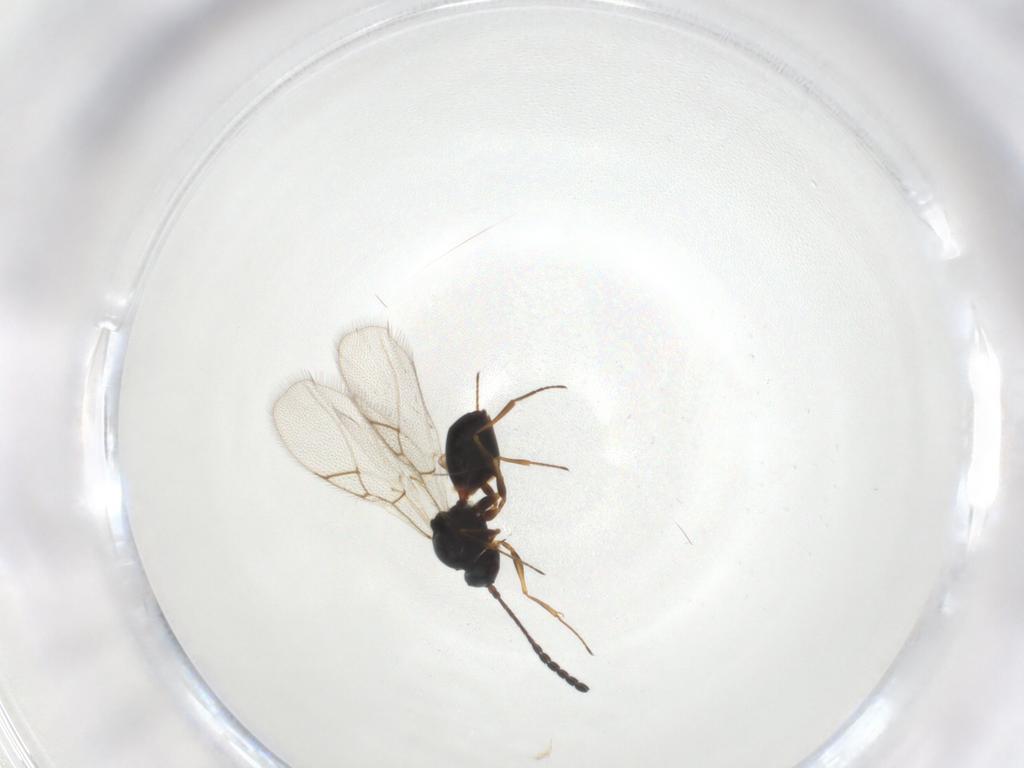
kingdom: Animalia
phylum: Arthropoda
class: Insecta
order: Hymenoptera
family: Figitidae
